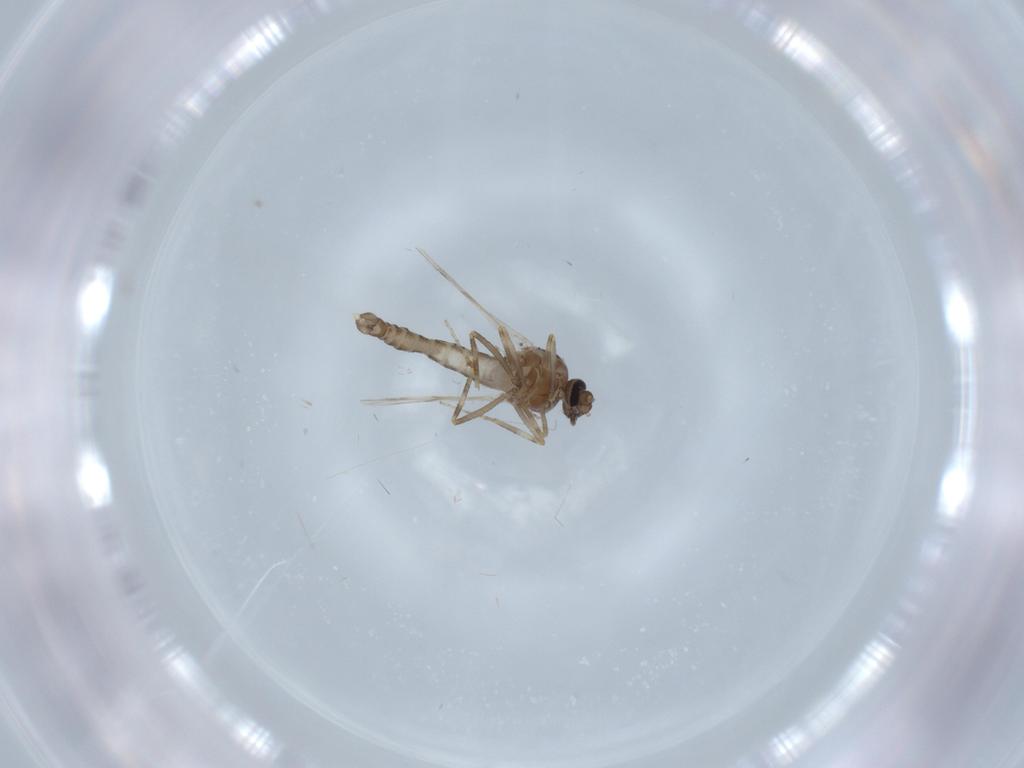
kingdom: Animalia
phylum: Arthropoda
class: Insecta
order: Diptera
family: Ceratopogonidae
